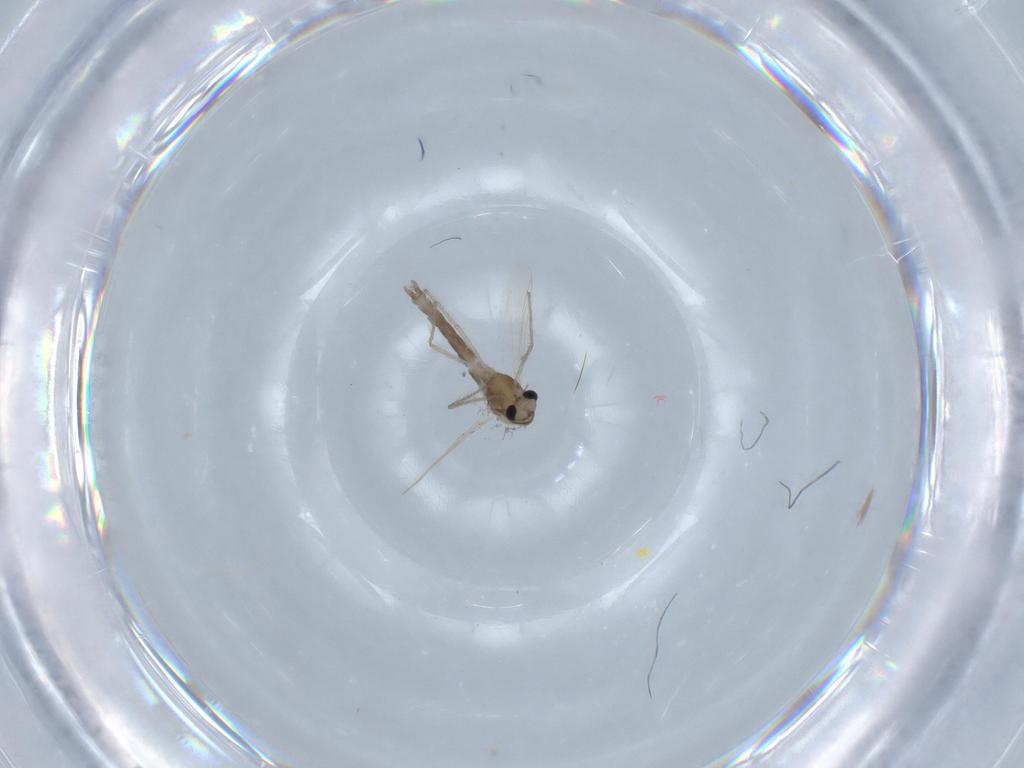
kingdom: Animalia
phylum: Arthropoda
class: Insecta
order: Diptera
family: Chironomidae
